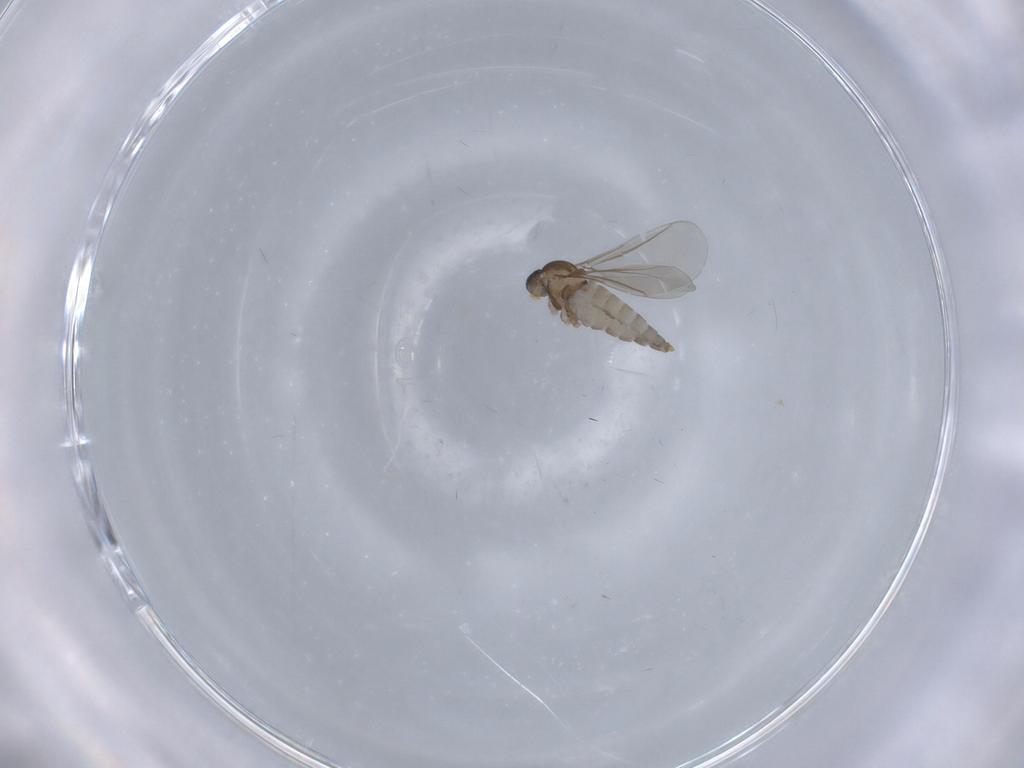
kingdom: Animalia
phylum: Arthropoda
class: Insecta
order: Diptera
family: Cecidomyiidae
